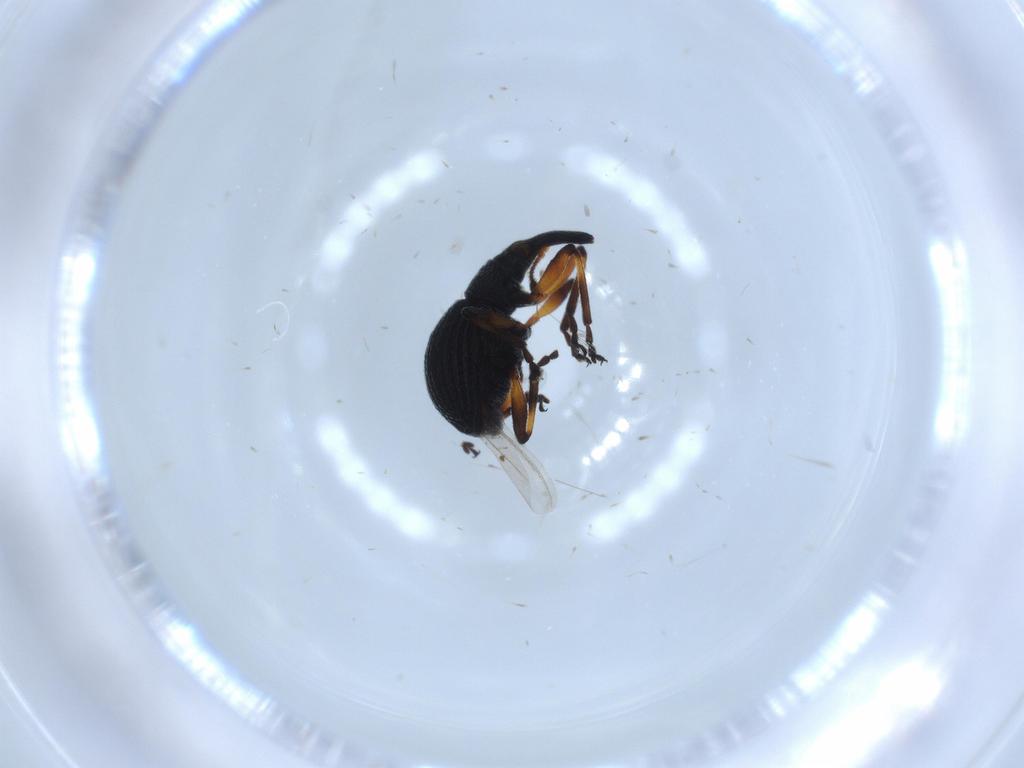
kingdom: Animalia
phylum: Arthropoda
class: Insecta
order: Coleoptera
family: Brentidae
